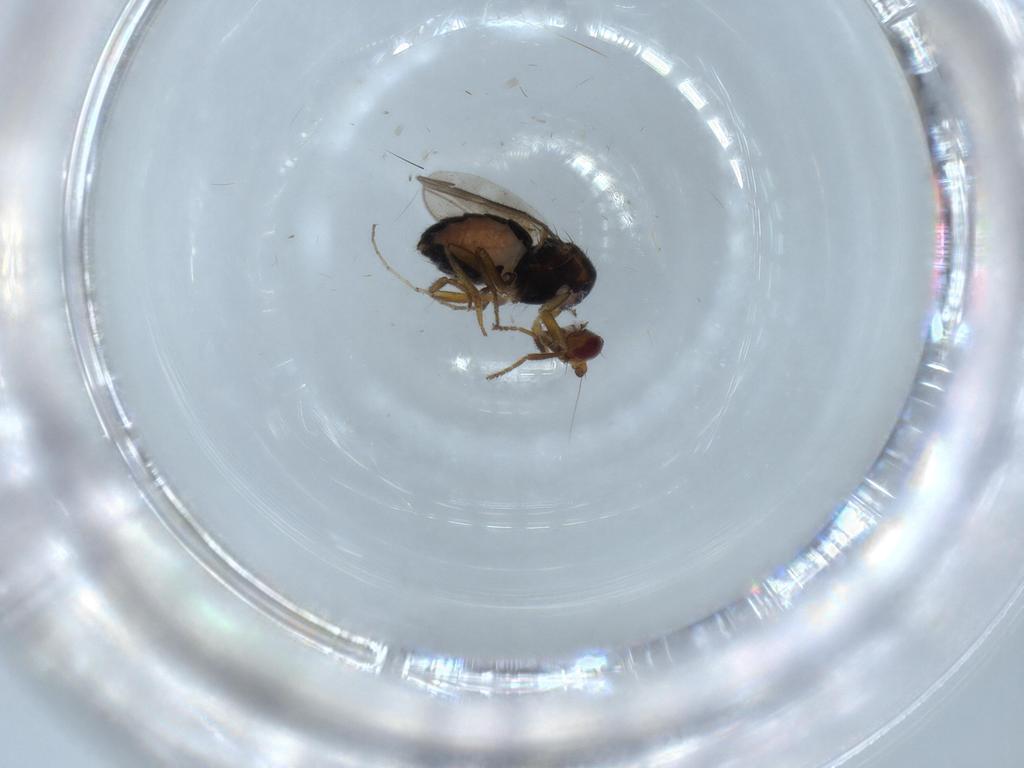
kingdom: Animalia
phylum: Arthropoda
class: Insecta
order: Diptera
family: Sphaeroceridae
